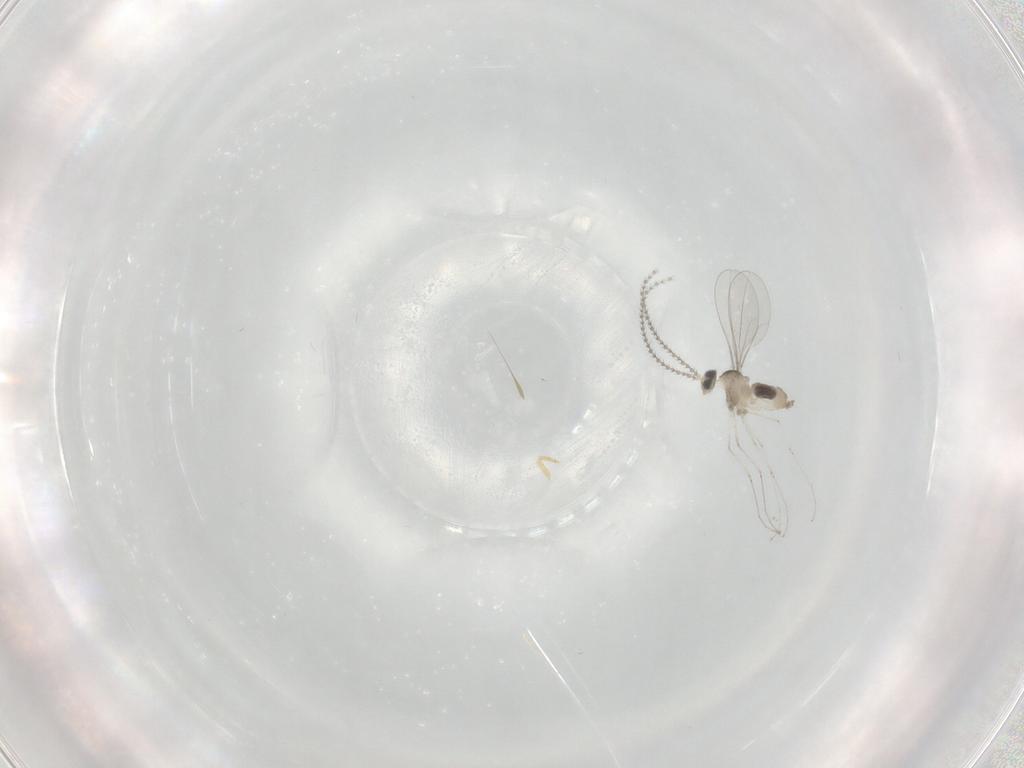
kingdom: Animalia
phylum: Arthropoda
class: Insecta
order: Diptera
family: Cecidomyiidae
